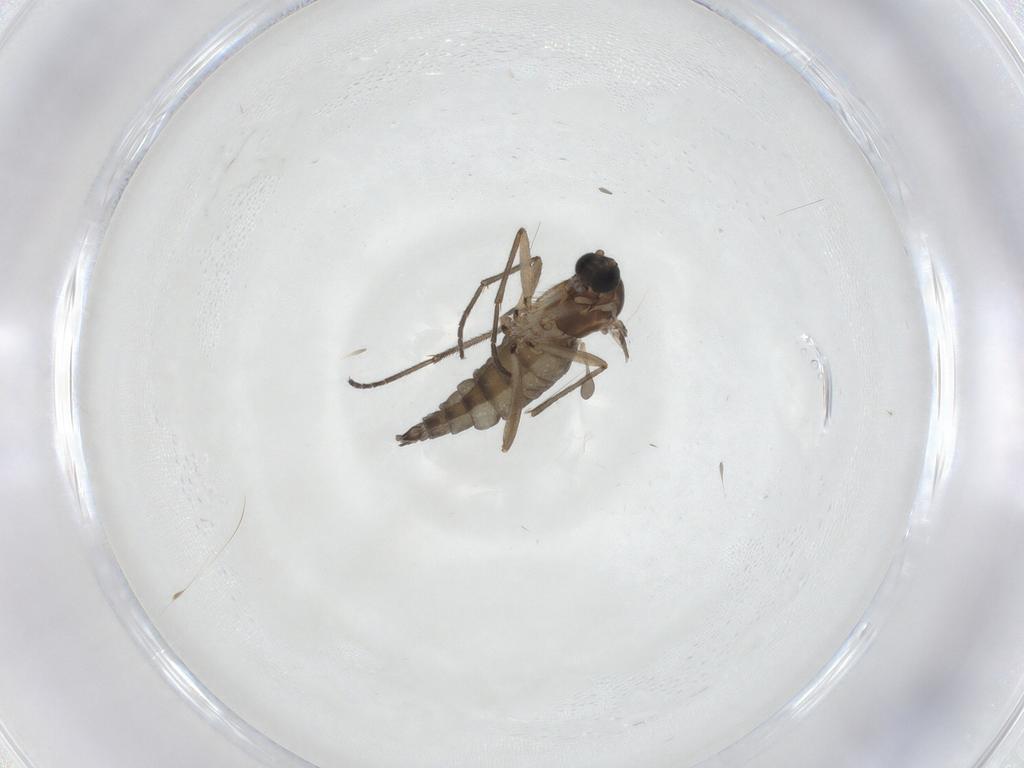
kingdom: Animalia
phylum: Arthropoda
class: Insecta
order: Diptera
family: Sciaridae
